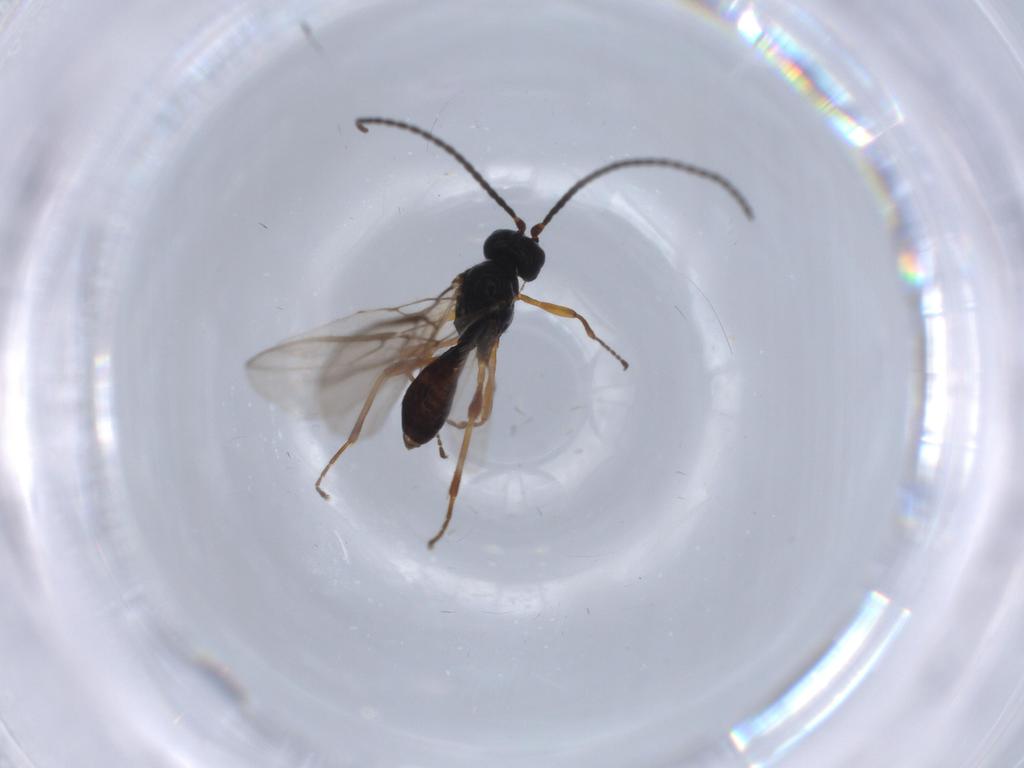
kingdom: Animalia
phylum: Arthropoda
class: Insecta
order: Hymenoptera
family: Braconidae
